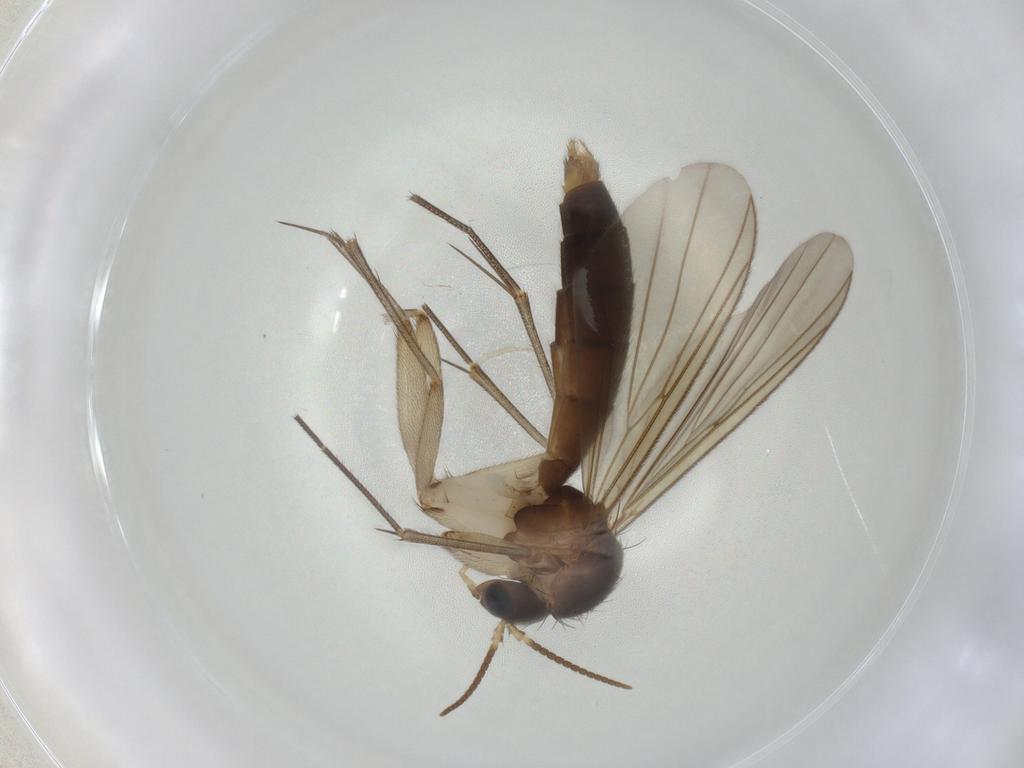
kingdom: Animalia
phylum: Arthropoda
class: Insecta
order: Diptera
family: Mycetophilidae
